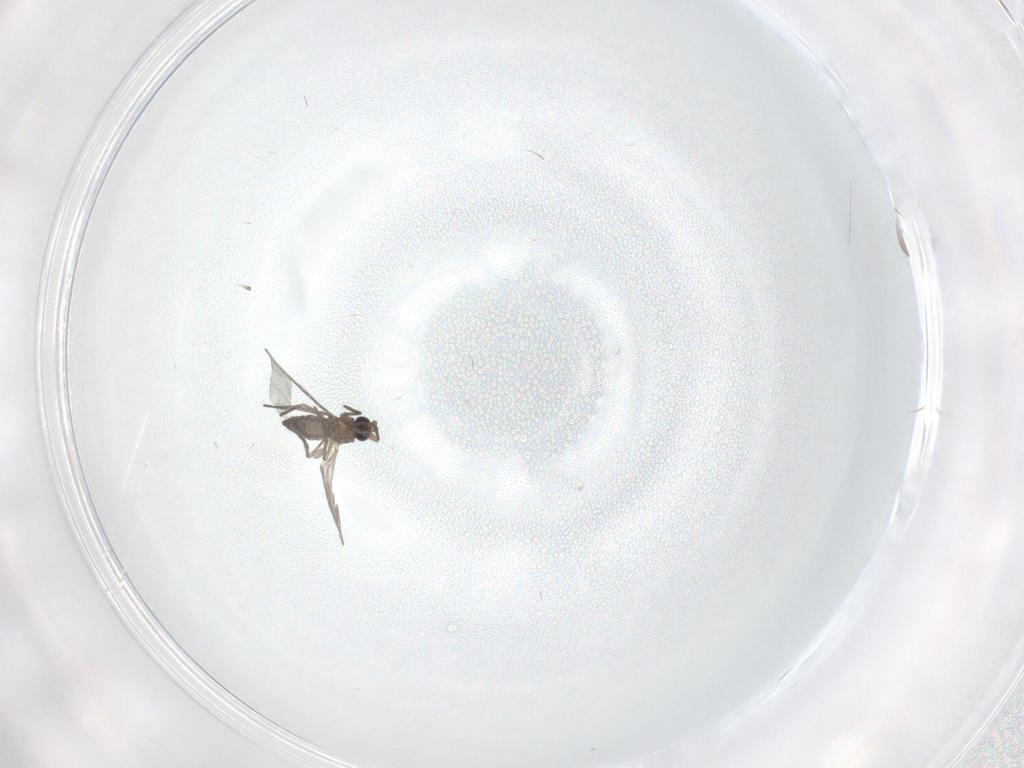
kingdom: Animalia
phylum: Arthropoda
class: Insecta
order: Diptera
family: Sciaridae
